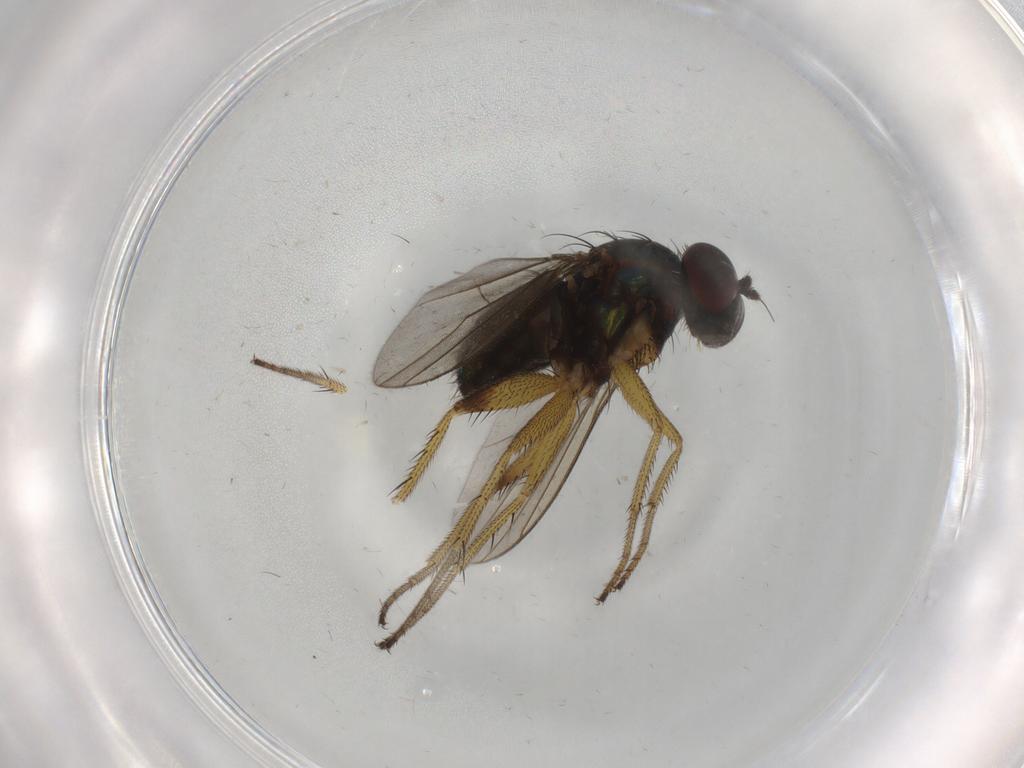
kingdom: Animalia
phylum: Arthropoda
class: Insecta
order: Diptera
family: Dolichopodidae
